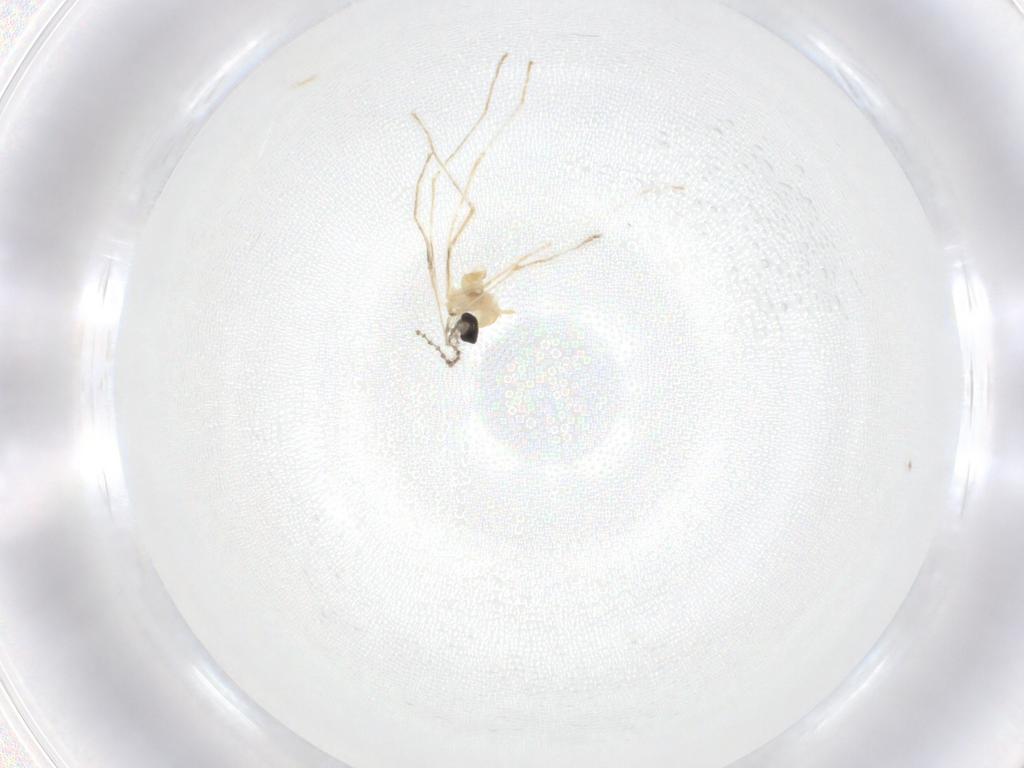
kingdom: Animalia
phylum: Arthropoda
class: Insecta
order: Diptera
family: Cecidomyiidae
